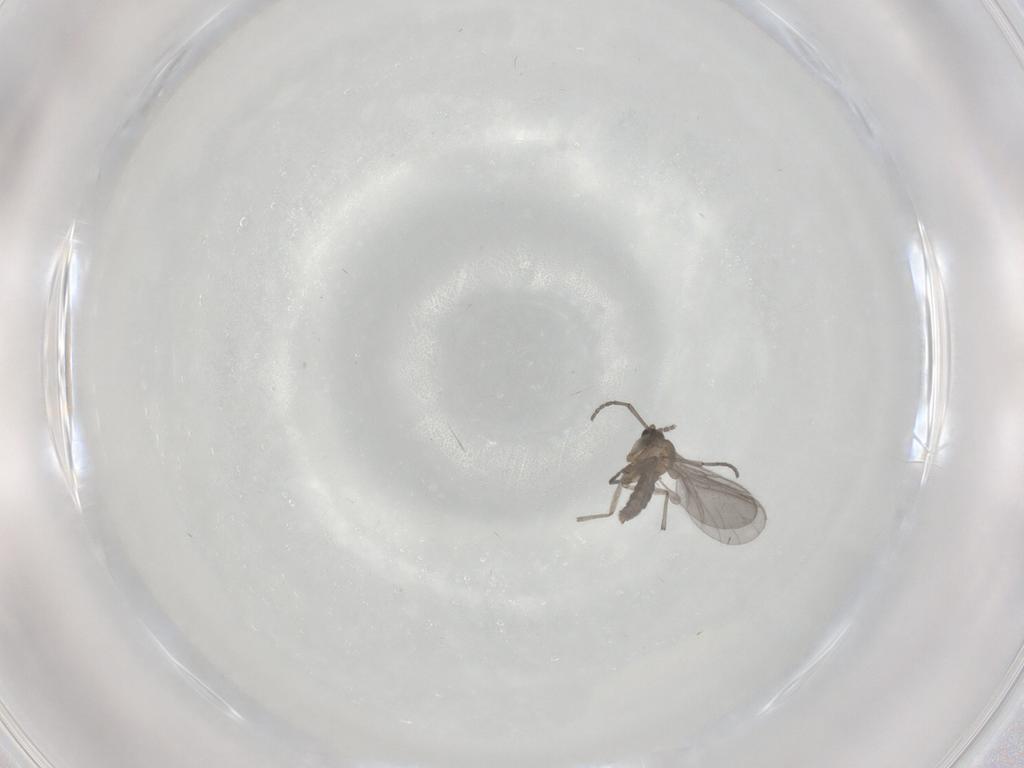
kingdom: Animalia
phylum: Arthropoda
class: Insecta
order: Diptera
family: Sciaridae
